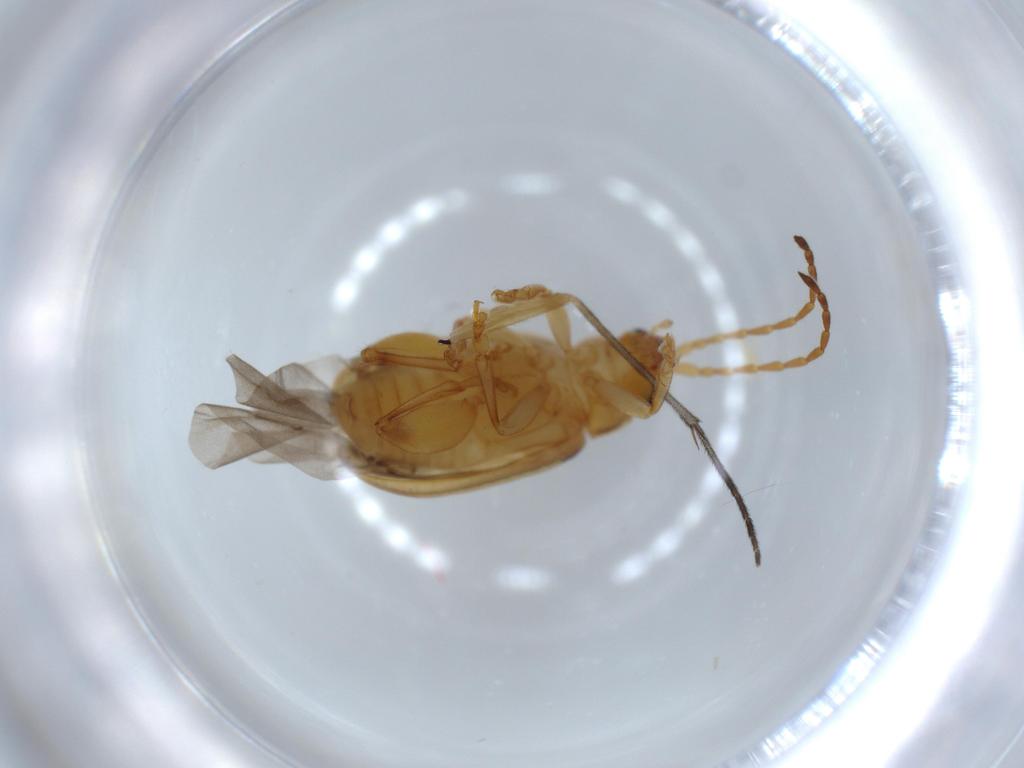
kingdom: Animalia
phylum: Arthropoda
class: Insecta
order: Coleoptera
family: Chrysomelidae
